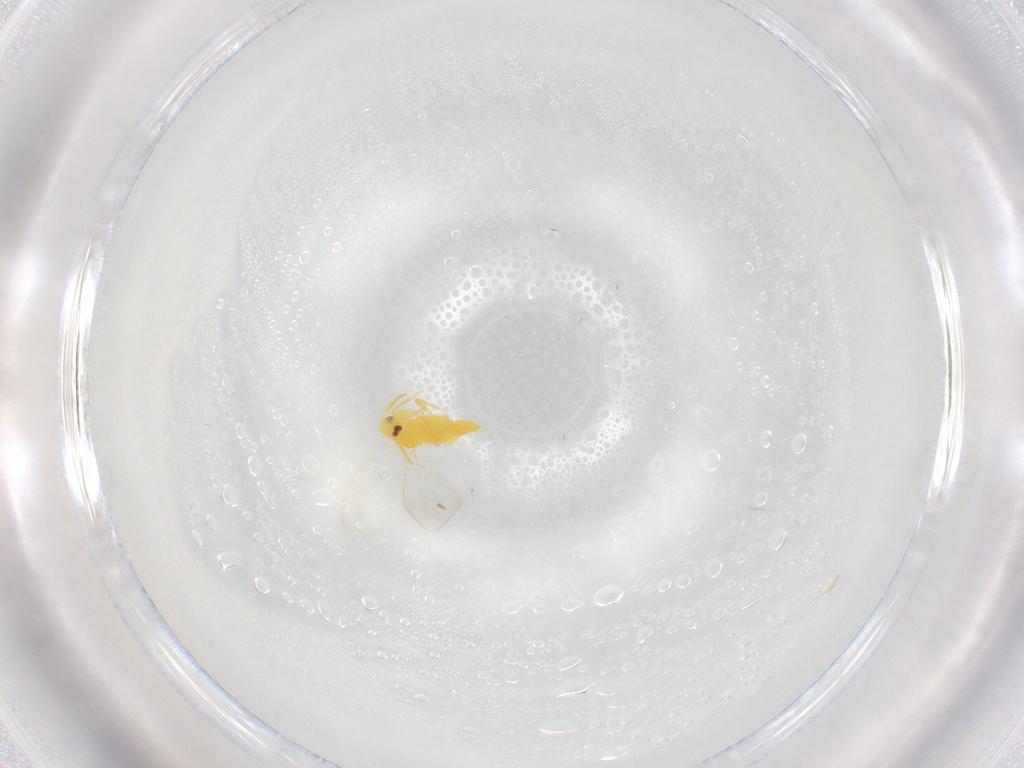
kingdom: Animalia
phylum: Arthropoda
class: Insecta
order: Hemiptera
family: Aleyrodidae
